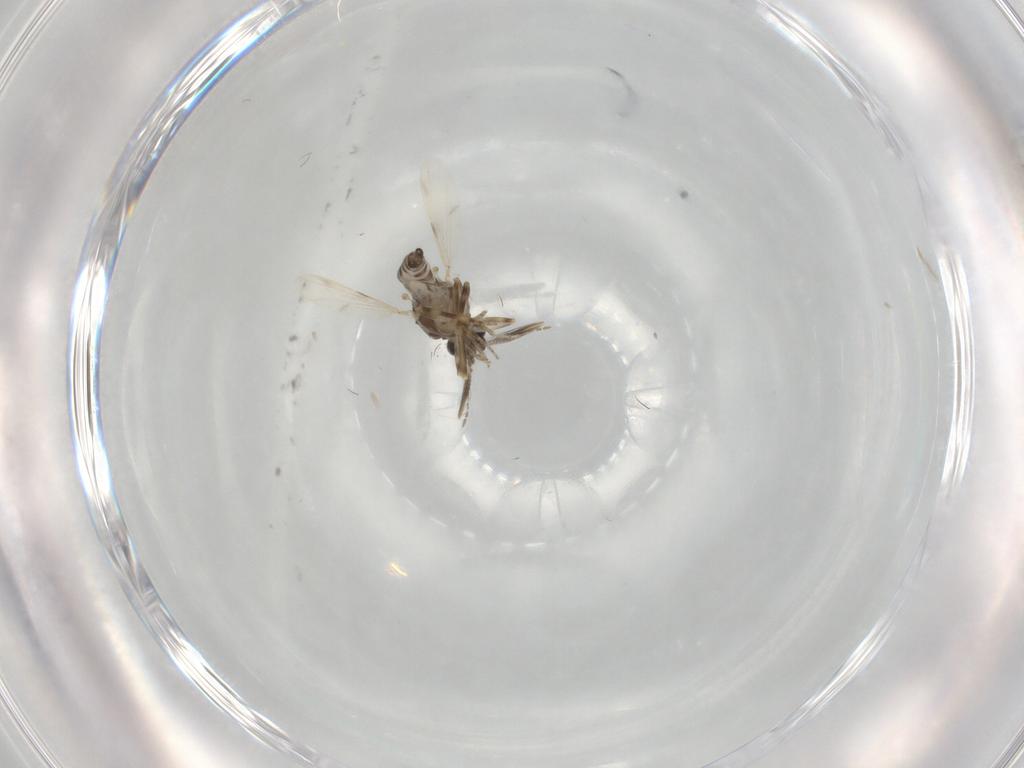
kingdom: Animalia
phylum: Arthropoda
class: Insecta
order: Diptera
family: Ceratopogonidae
